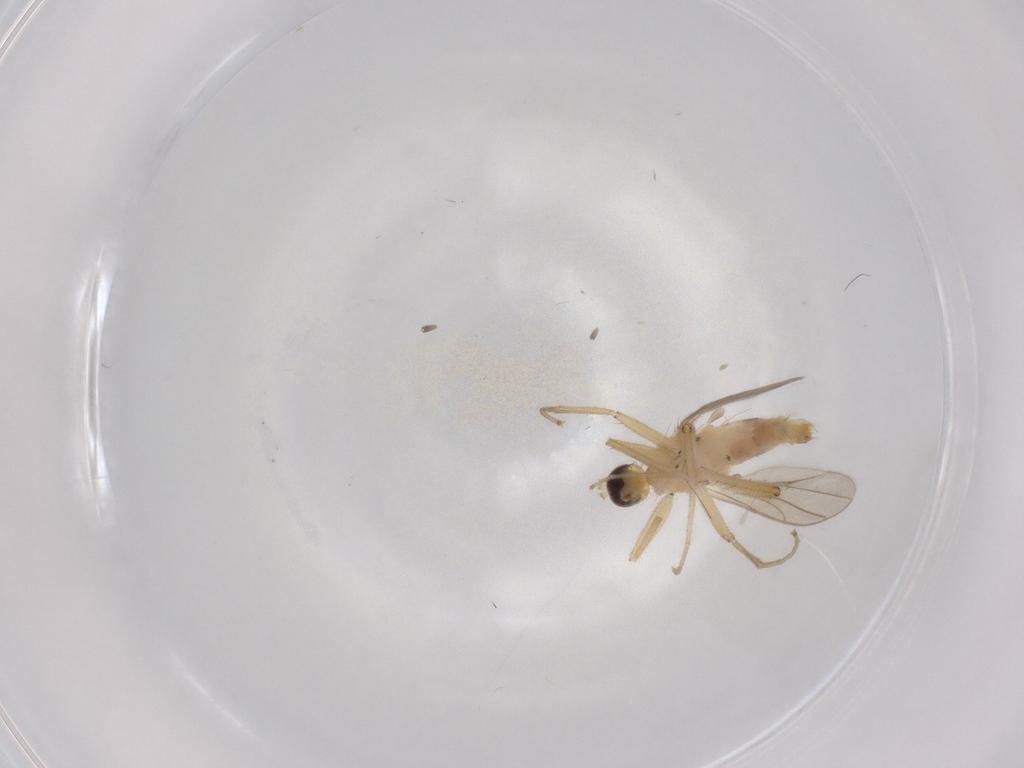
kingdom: Animalia
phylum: Arthropoda
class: Insecta
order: Diptera
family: Hybotidae
